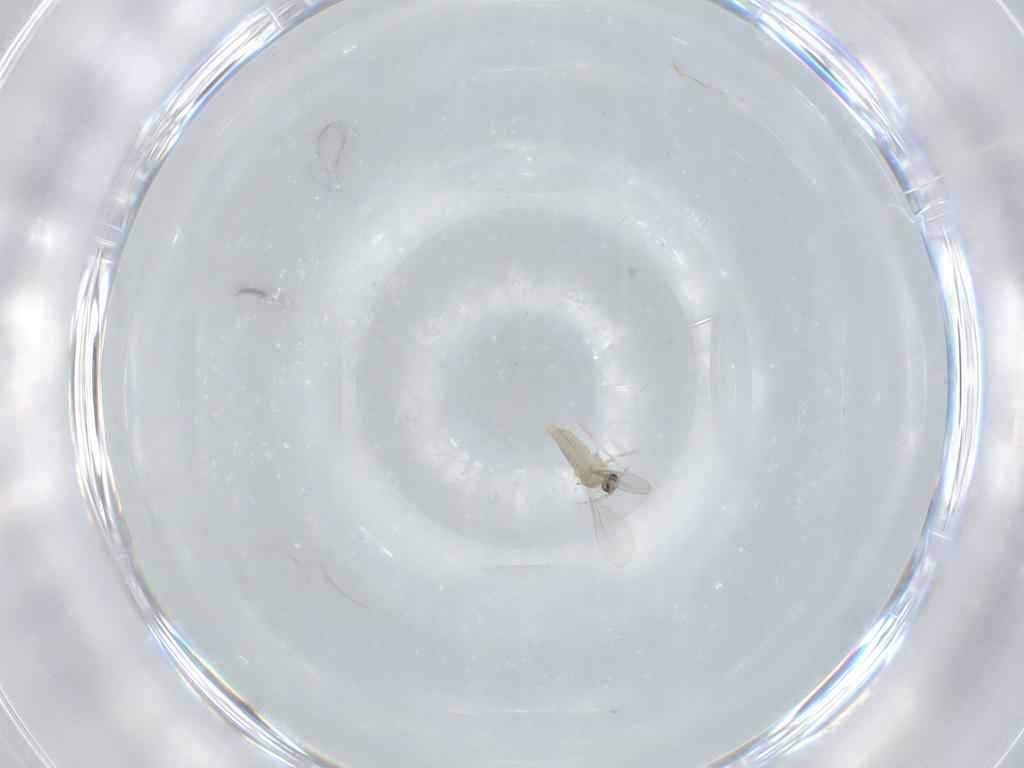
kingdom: Animalia
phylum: Arthropoda
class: Insecta
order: Diptera
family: Cecidomyiidae
